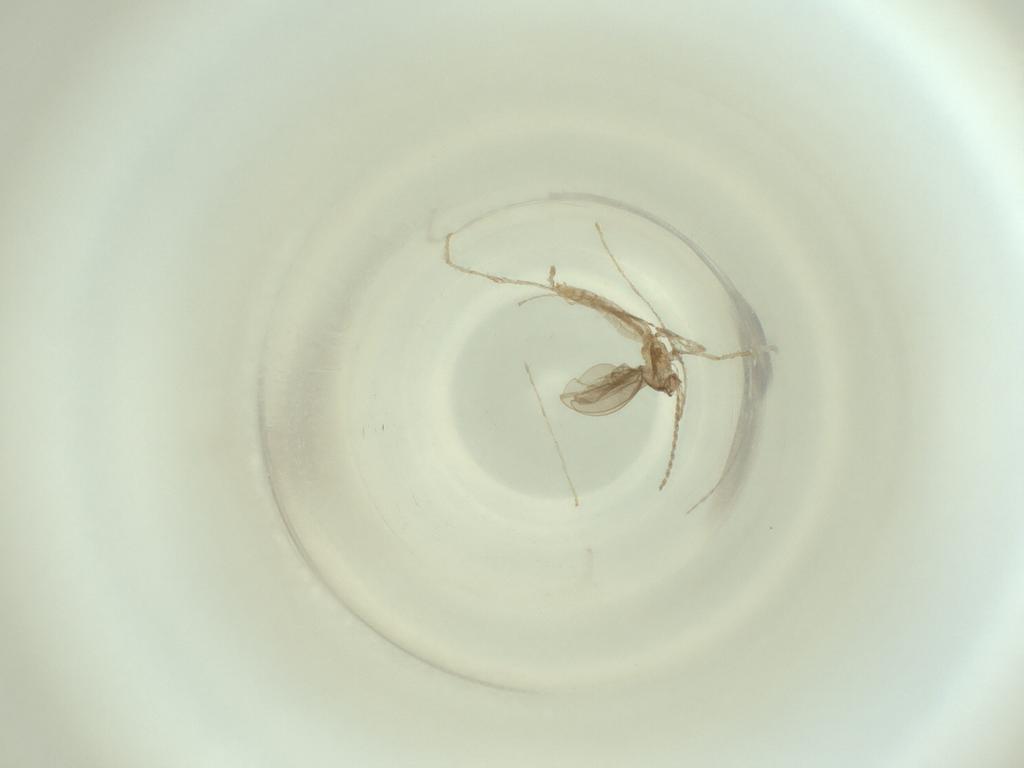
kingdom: Animalia
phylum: Arthropoda
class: Insecta
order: Diptera
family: Cecidomyiidae
